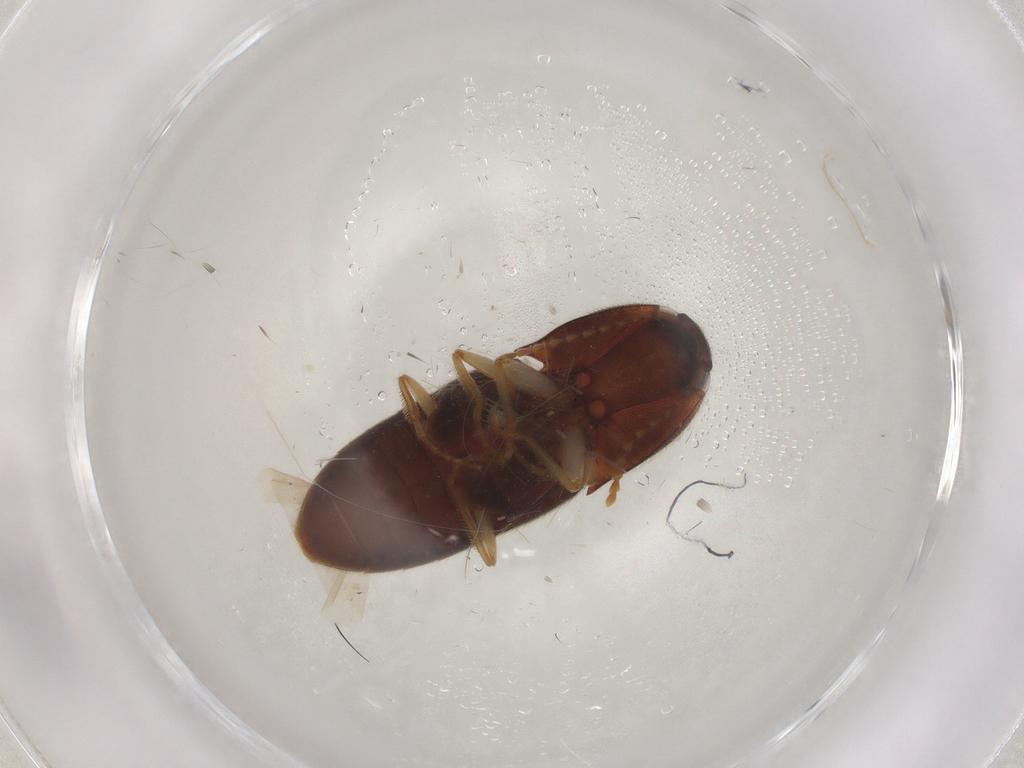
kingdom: Animalia
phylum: Arthropoda
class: Insecta
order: Coleoptera
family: Elateridae
